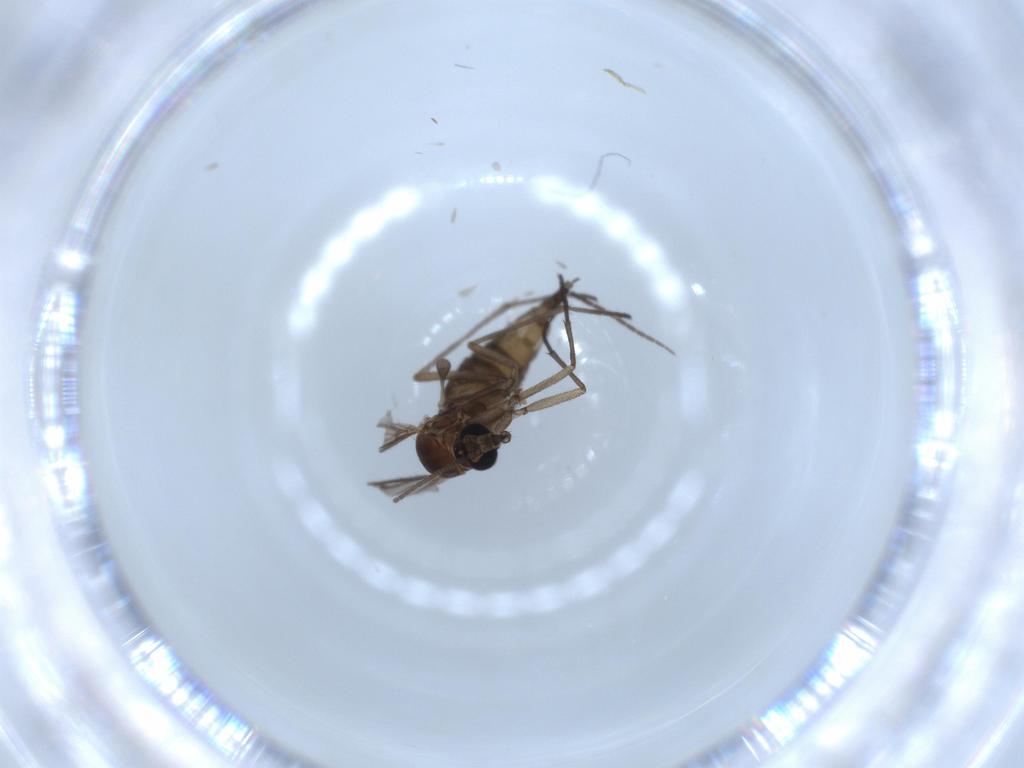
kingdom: Animalia
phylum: Arthropoda
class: Insecta
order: Diptera
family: Sciaridae
